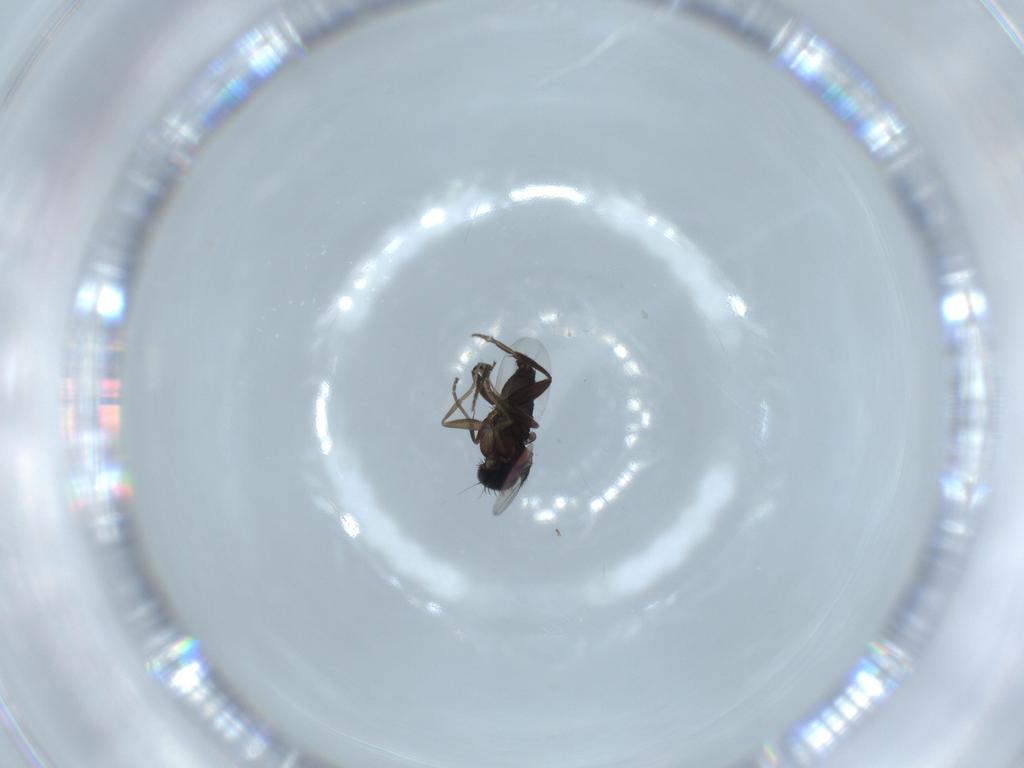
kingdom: Animalia
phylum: Arthropoda
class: Insecta
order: Diptera
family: Phoridae
